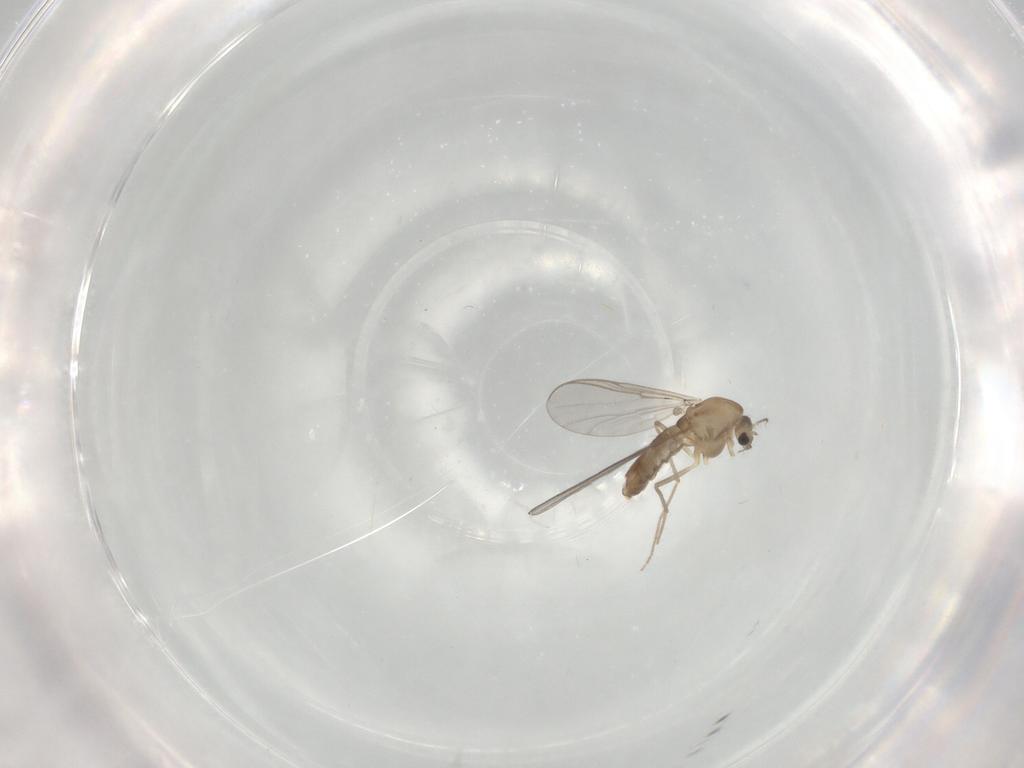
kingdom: Animalia
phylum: Arthropoda
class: Insecta
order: Diptera
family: Chironomidae
